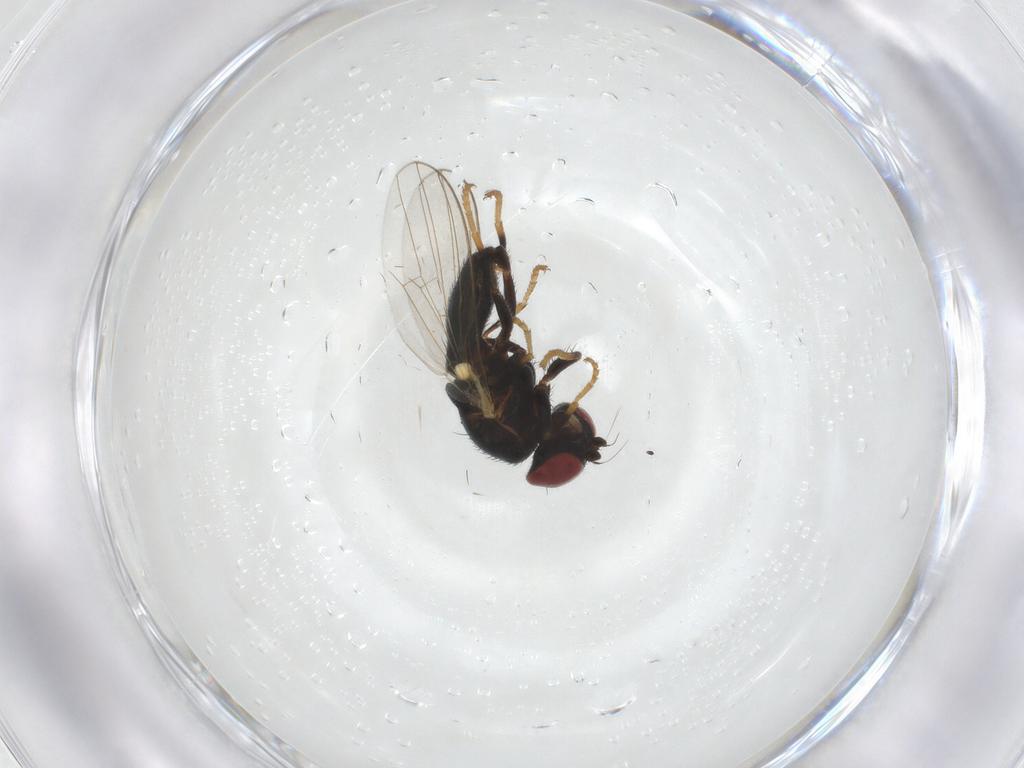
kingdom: Animalia
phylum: Arthropoda
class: Insecta
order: Diptera
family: Chamaemyiidae
